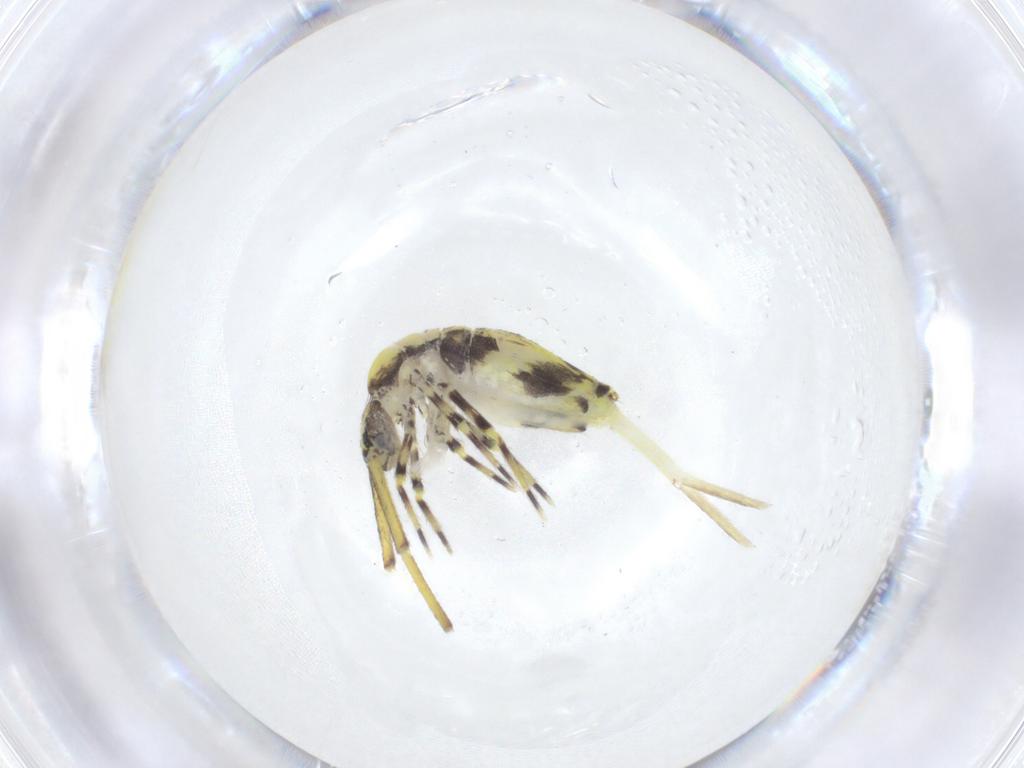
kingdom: Animalia
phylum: Arthropoda
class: Collembola
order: Entomobryomorpha
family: Entomobryidae
